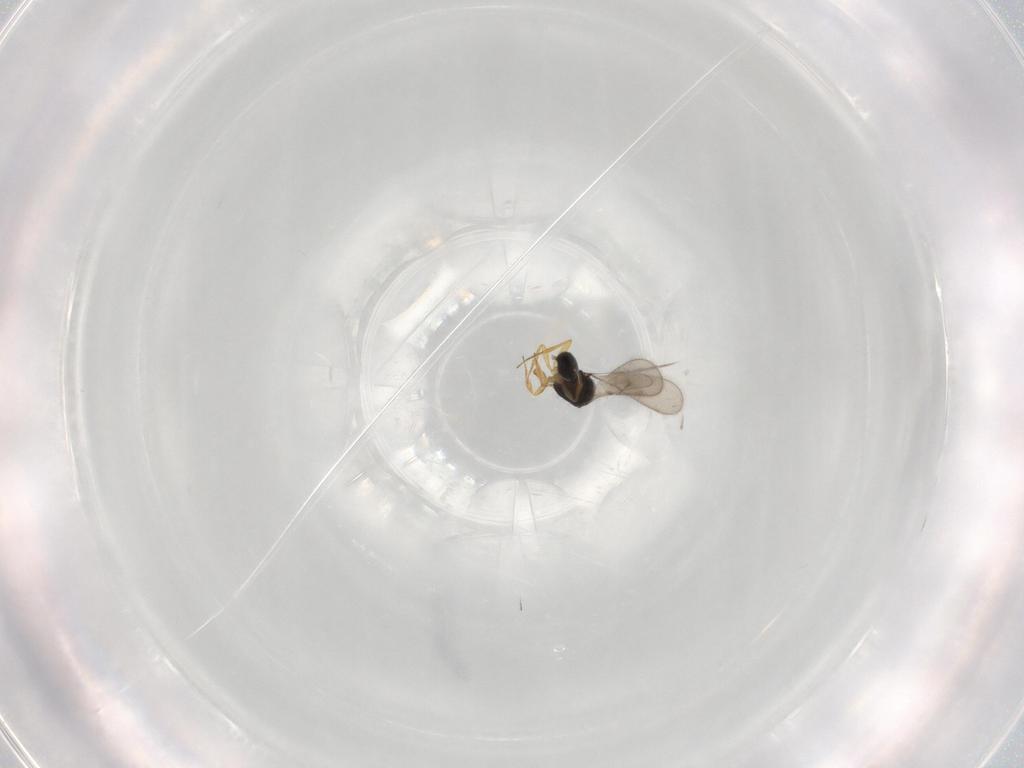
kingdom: Animalia
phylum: Arthropoda
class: Insecta
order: Hymenoptera
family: Scelionidae
